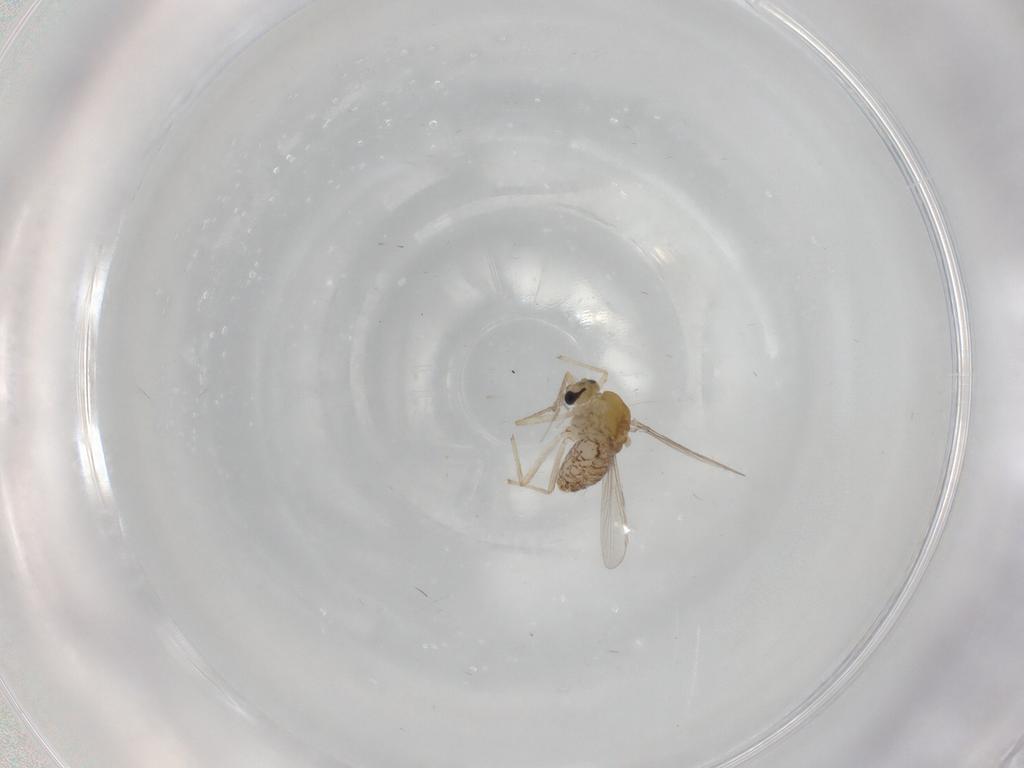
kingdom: Animalia
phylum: Arthropoda
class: Insecta
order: Diptera
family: Chironomidae
